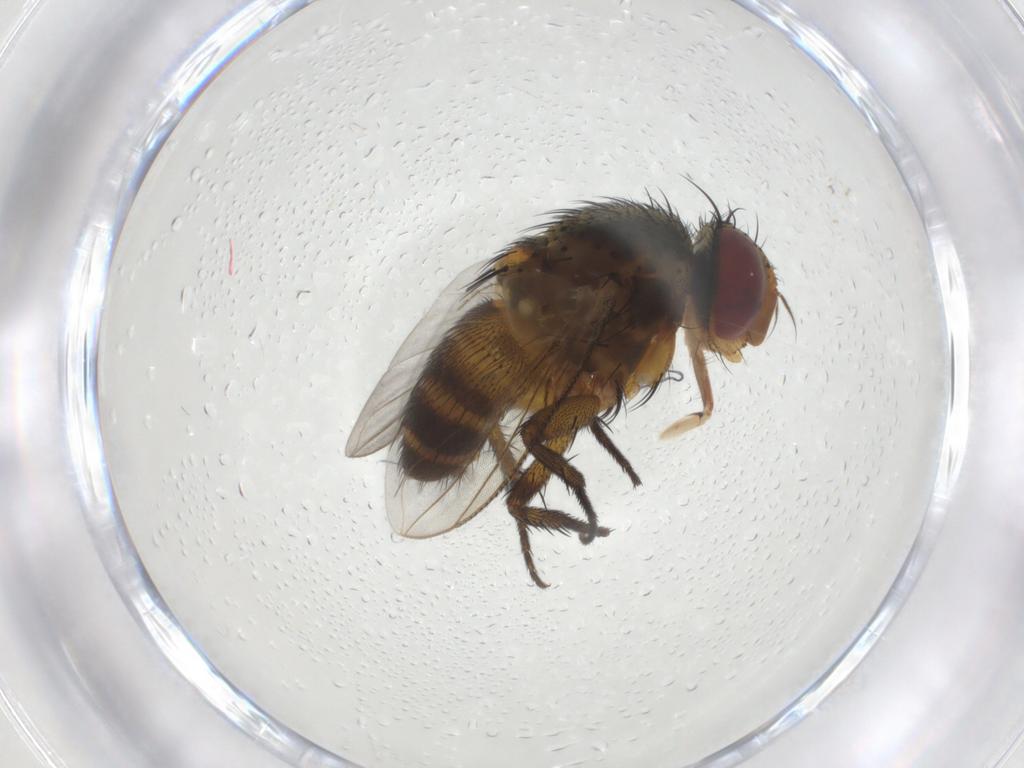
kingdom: Animalia
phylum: Arthropoda
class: Insecta
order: Diptera
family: Tachinidae
